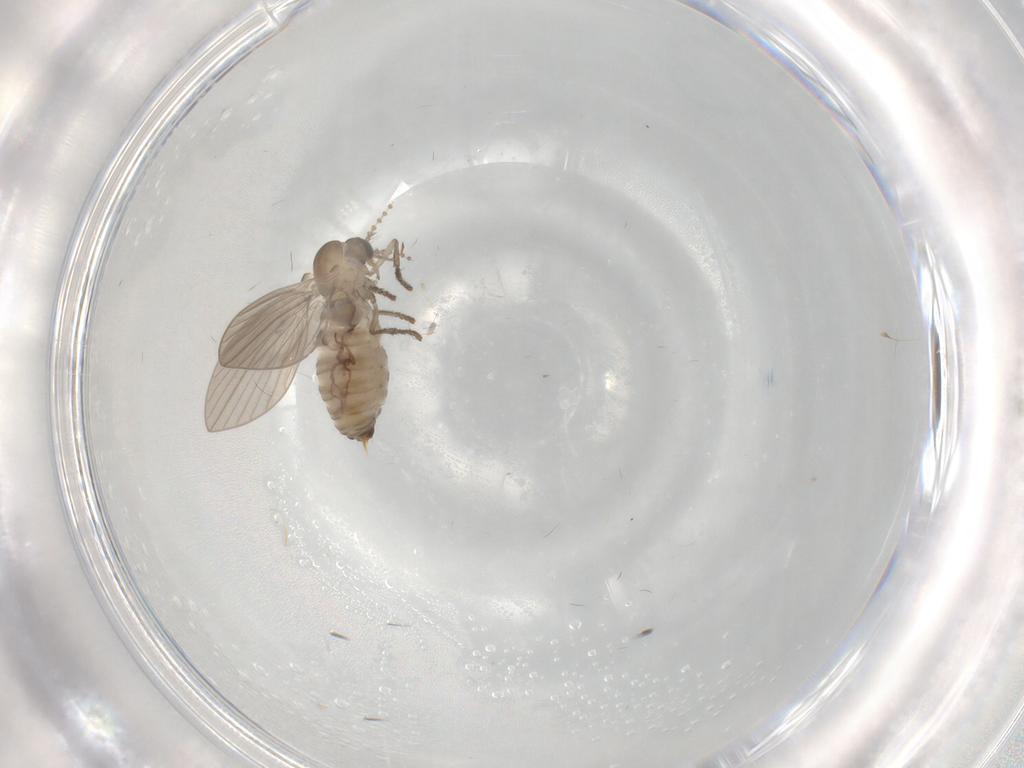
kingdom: Animalia
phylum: Arthropoda
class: Insecta
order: Diptera
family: Psychodidae
